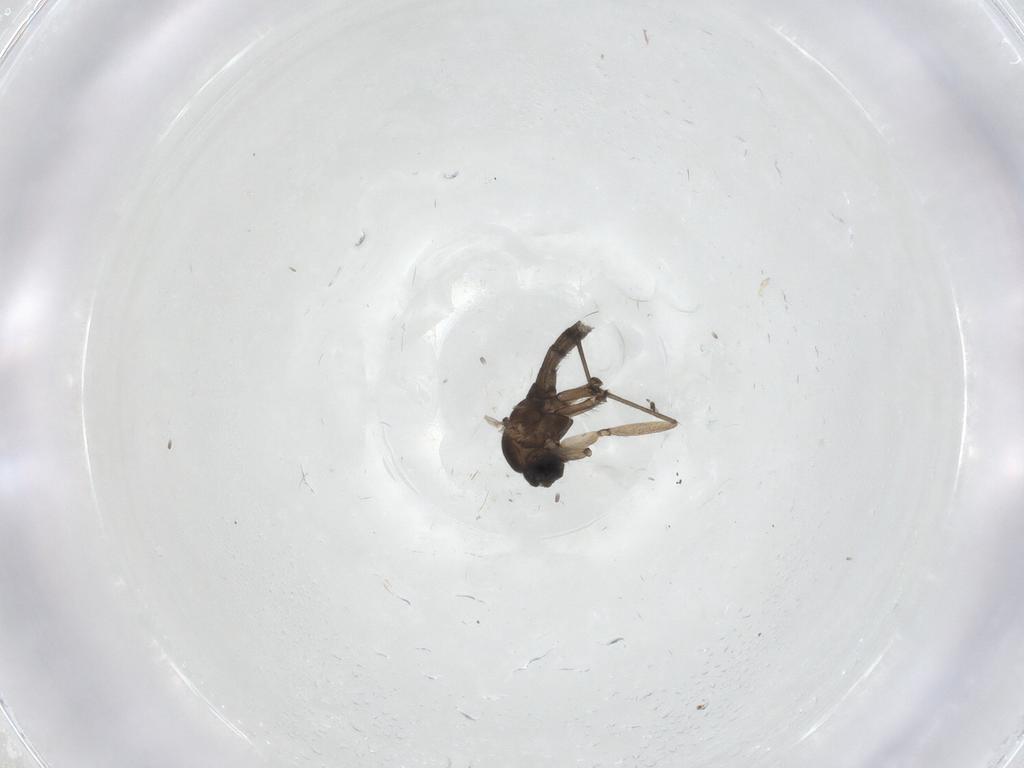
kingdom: Animalia
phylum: Arthropoda
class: Insecta
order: Diptera
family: Sciaridae
